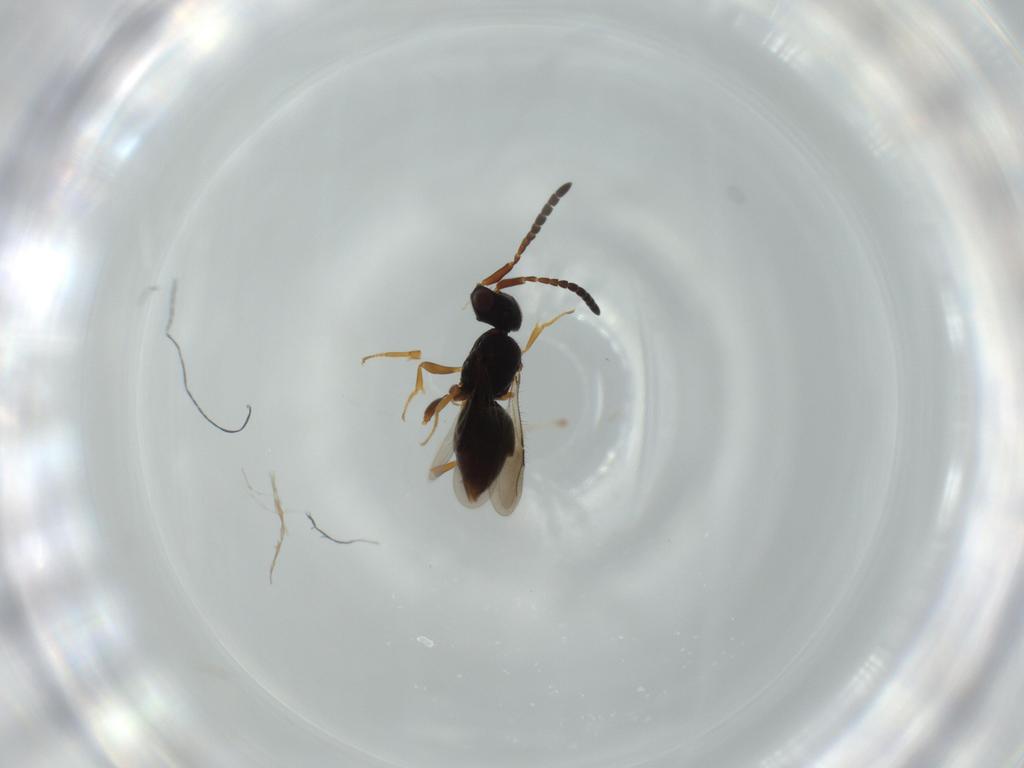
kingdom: Animalia
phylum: Arthropoda
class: Insecta
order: Hymenoptera
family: Ceraphronidae
